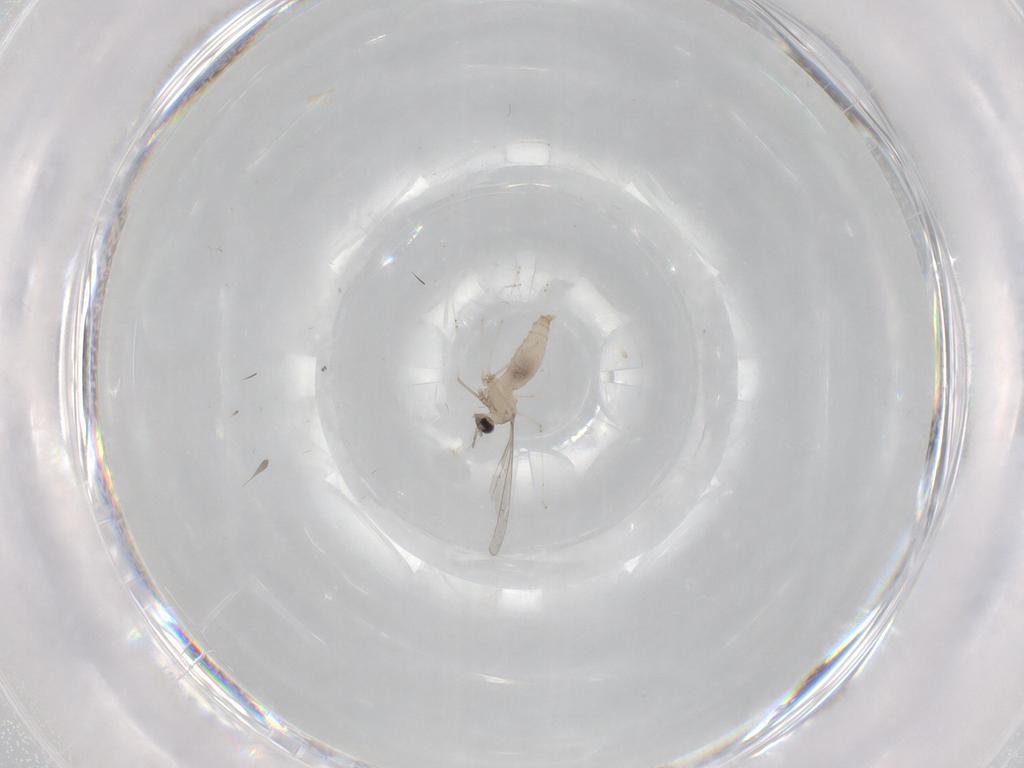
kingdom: Animalia
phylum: Arthropoda
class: Insecta
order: Diptera
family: Cecidomyiidae
